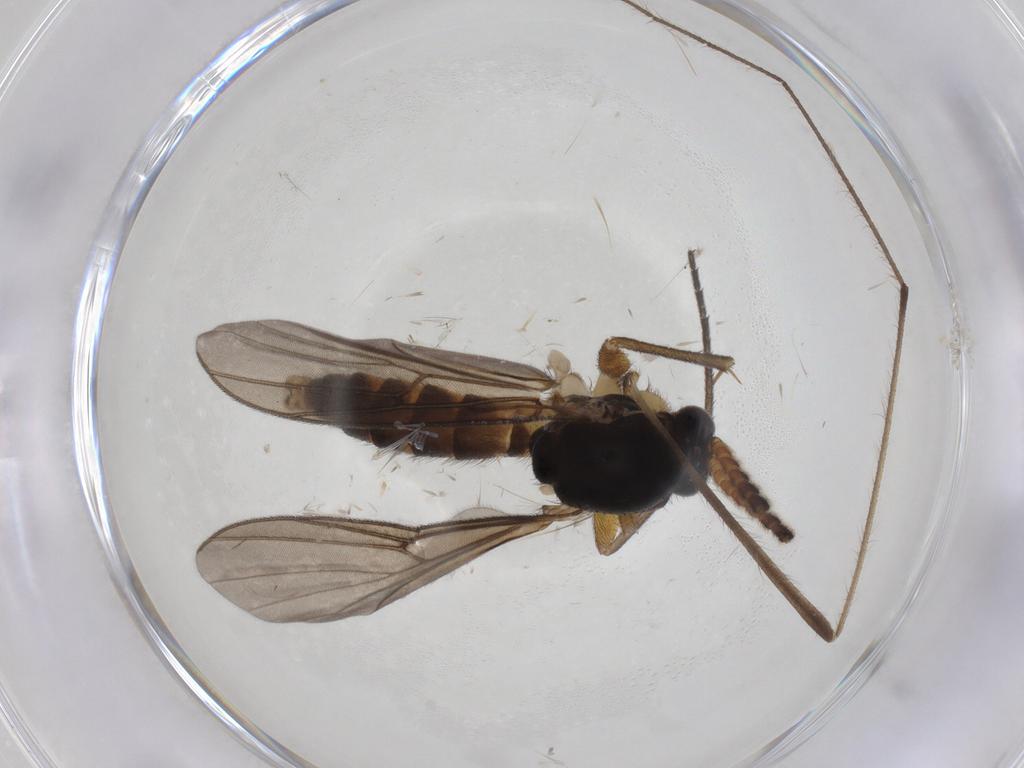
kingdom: Animalia
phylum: Arthropoda
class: Insecta
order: Diptera
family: Mycetophilidae
